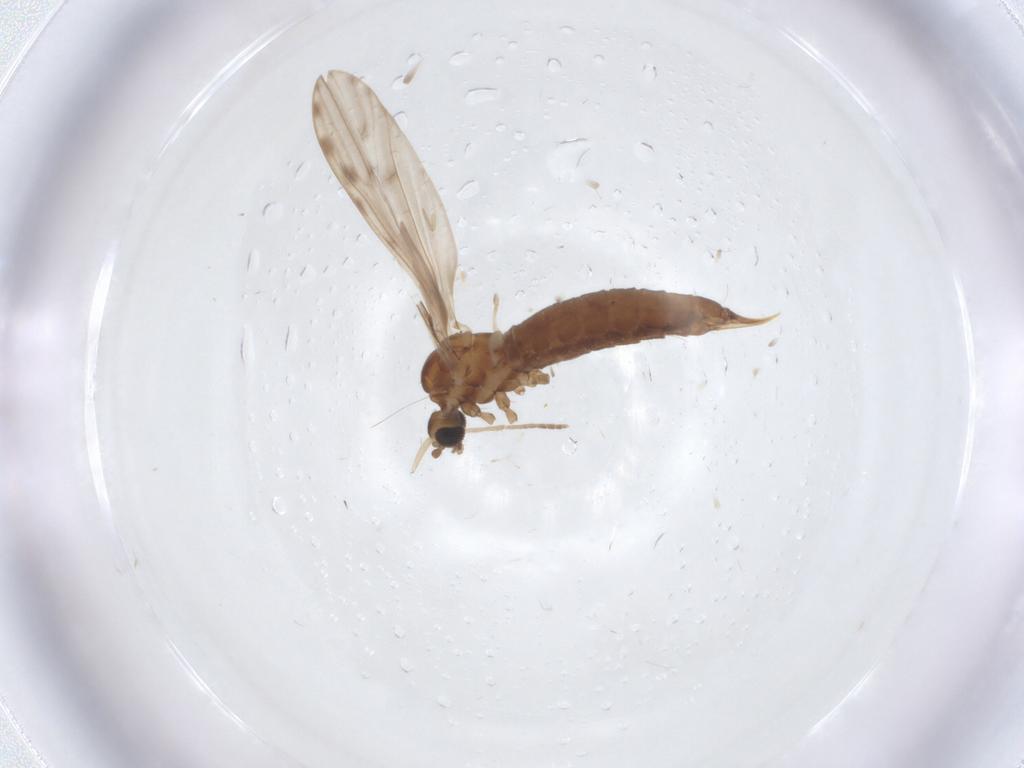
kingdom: Animalia
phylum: Arthropoda
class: Insecta
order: Diptera
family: Limoniidae
